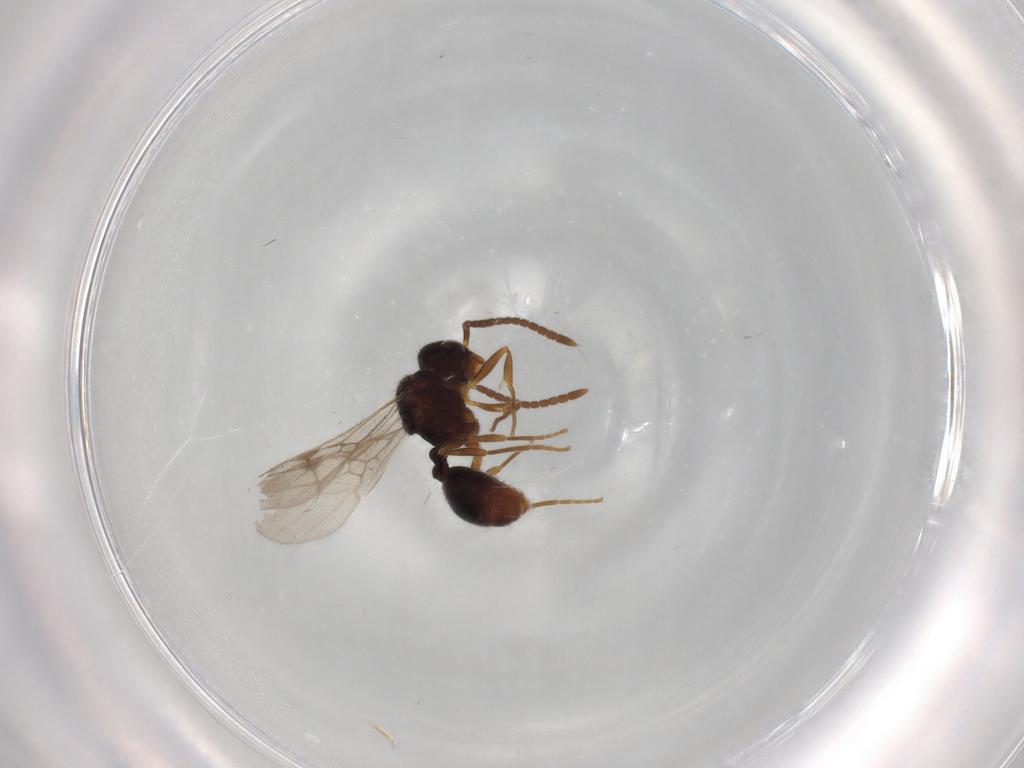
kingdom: Animalia
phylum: Arthropoda
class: Insecta
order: Hymenoptera
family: Formicidae
